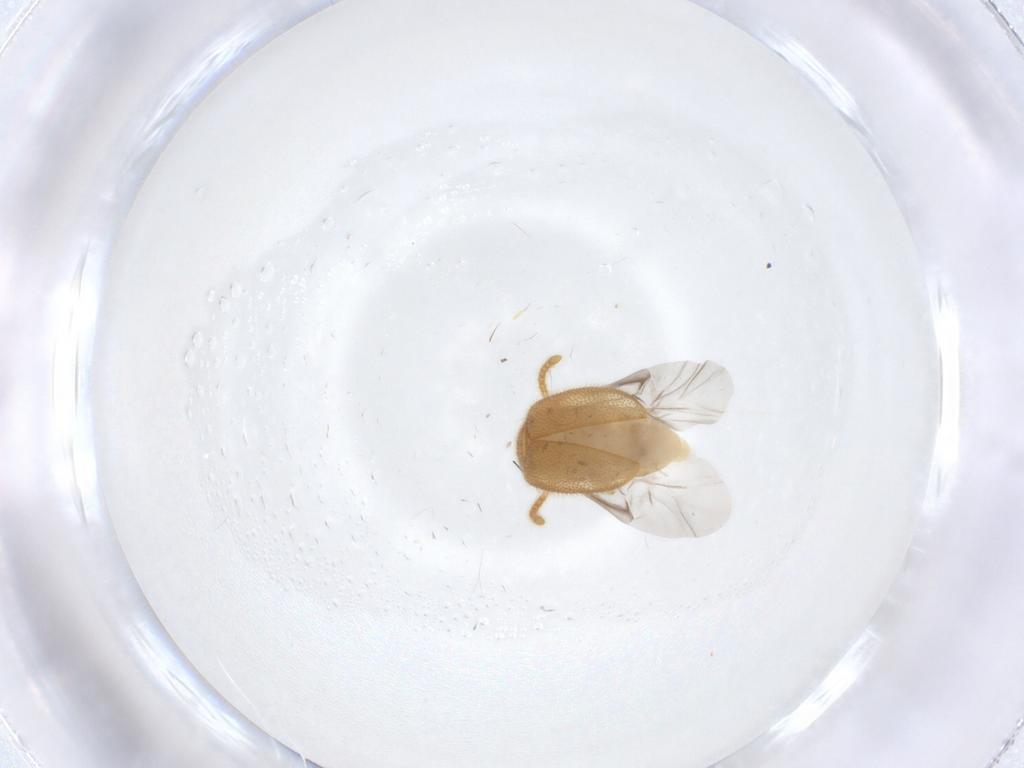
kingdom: Animalia
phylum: Arthropoda
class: Insecta
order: Coleoptera
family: Aderidae
